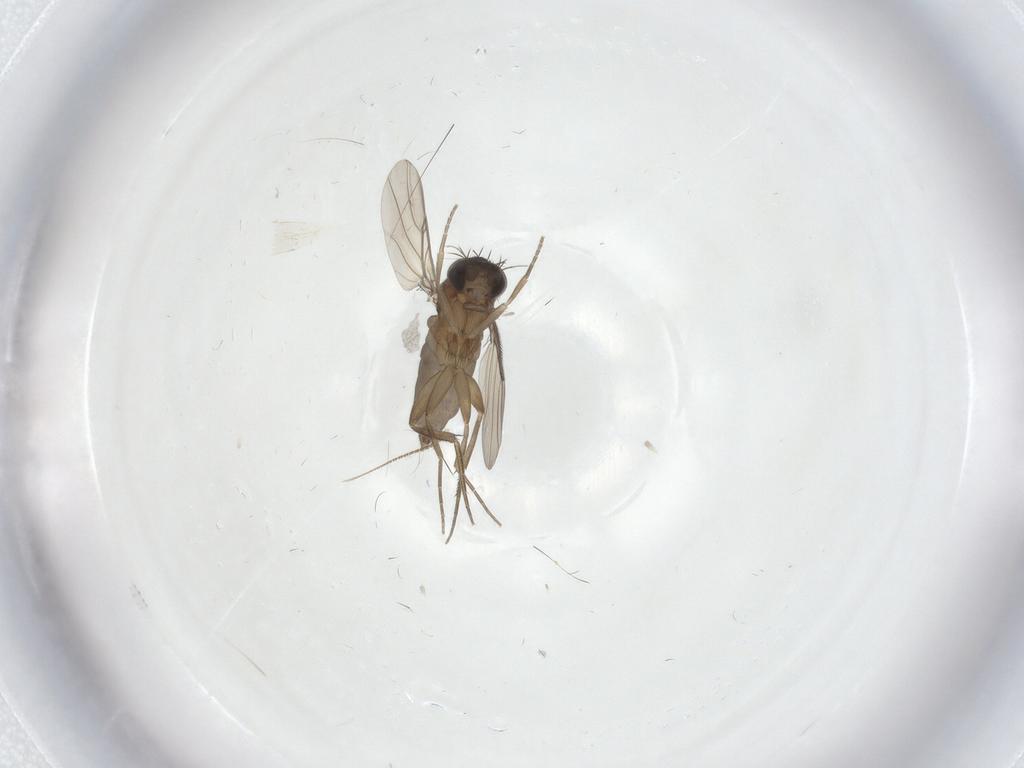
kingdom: Animalia
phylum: Arthropoda
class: Insecta
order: Diptera
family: Phoridae
